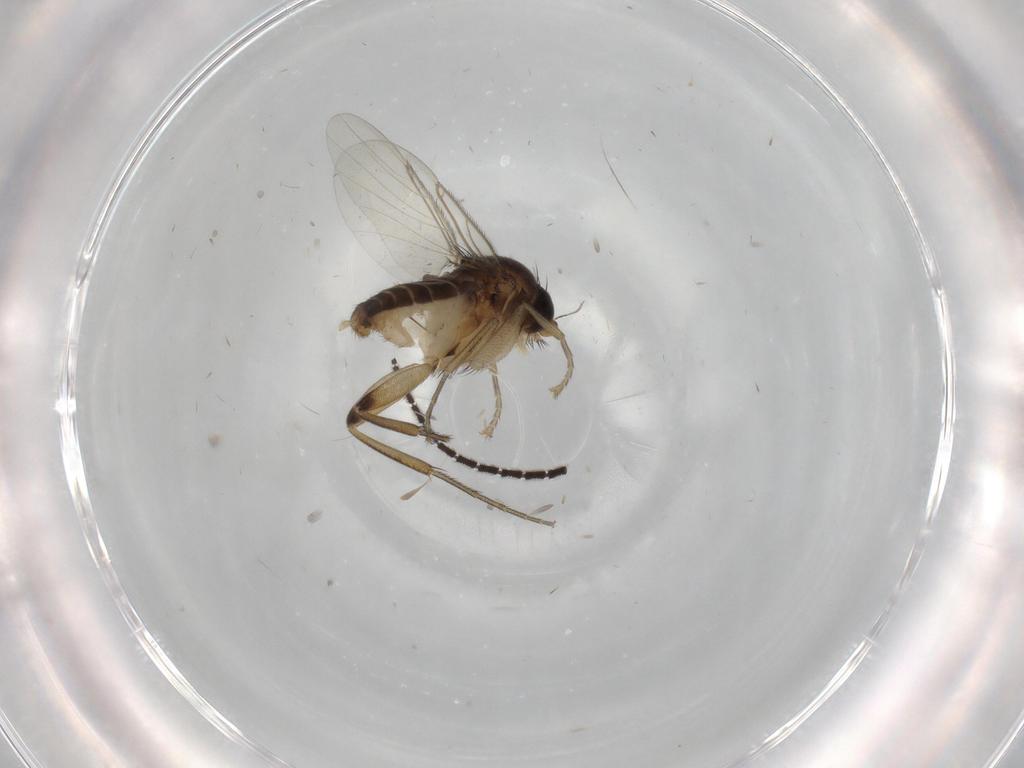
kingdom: Animalia
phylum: Arthropoda
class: Insecta
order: Diptera
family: Phoridae
